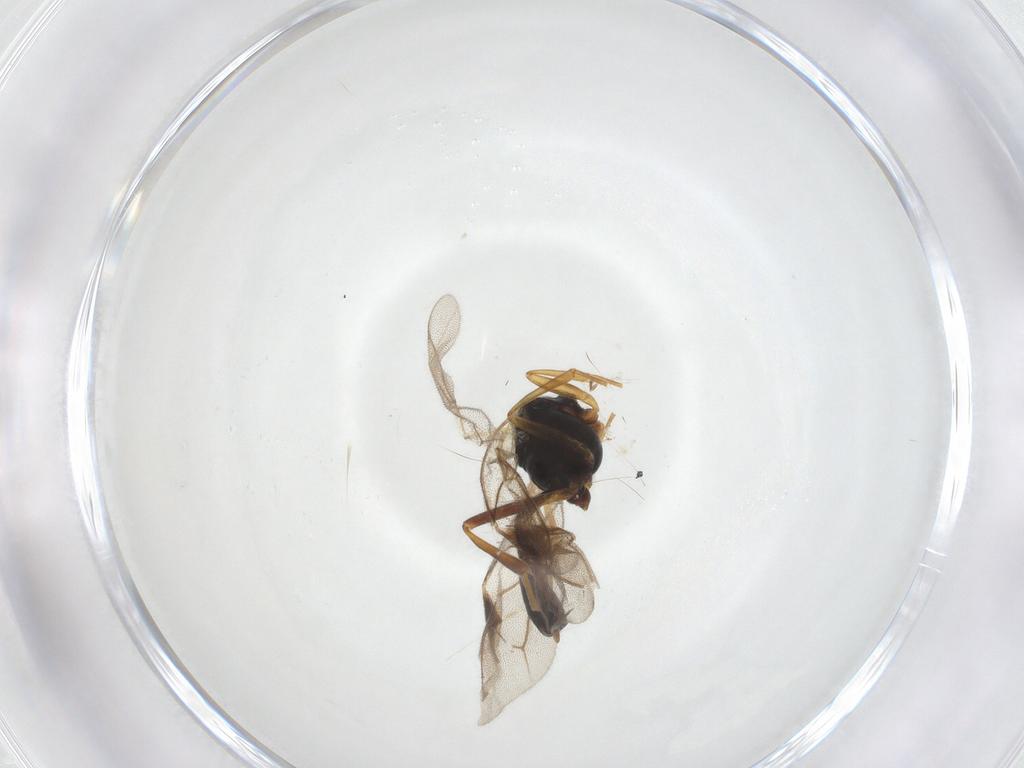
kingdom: Animalia
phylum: Arthropoda
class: Insecta
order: Hymenoptera
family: Ichneumonidae
